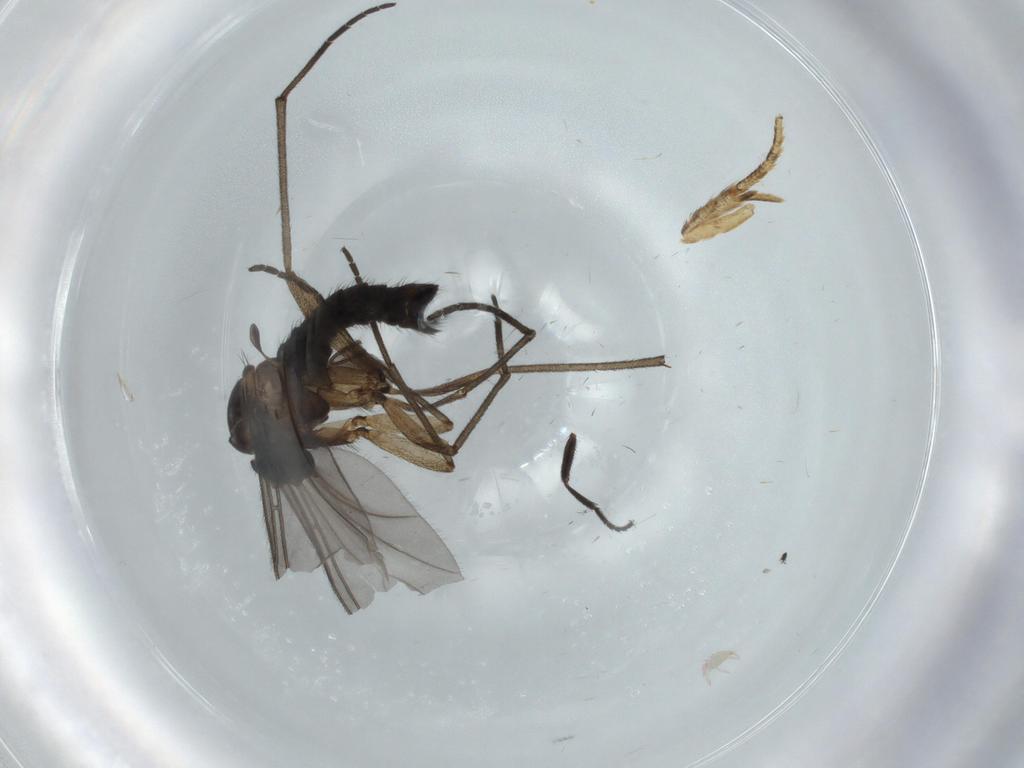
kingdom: Animalia
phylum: Arthropoda
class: Insecta
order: Diptera
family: Sciaridae
